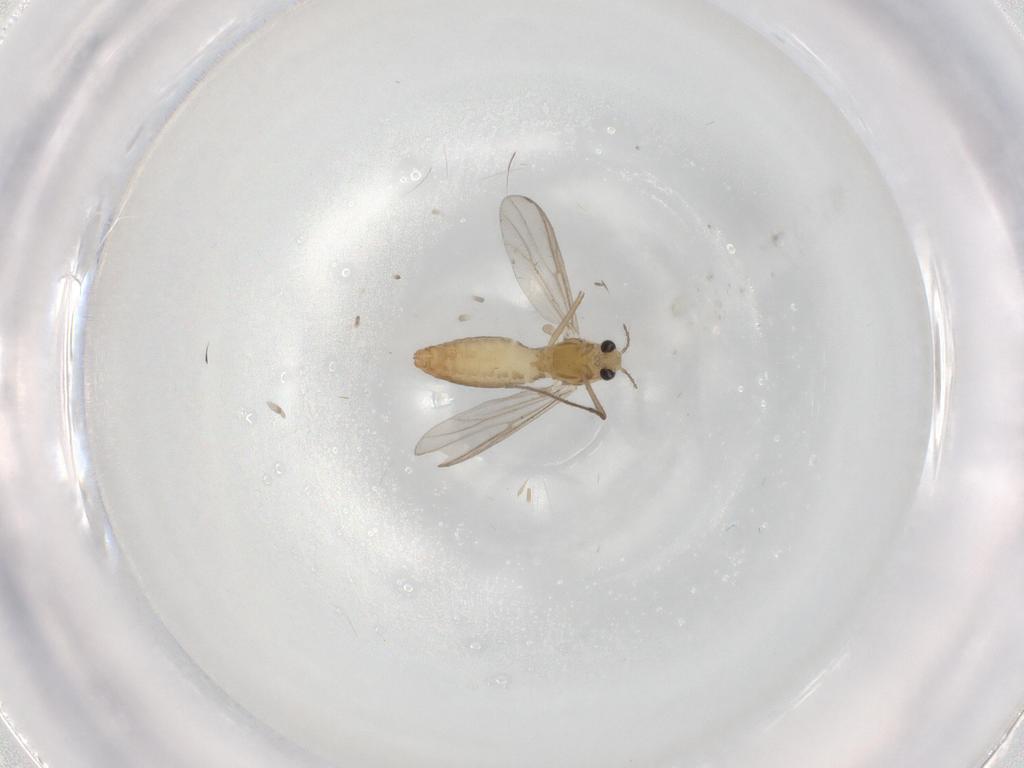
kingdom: Animalia
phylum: Arthropoda
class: Insecta
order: Diptera
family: Chironomidae
